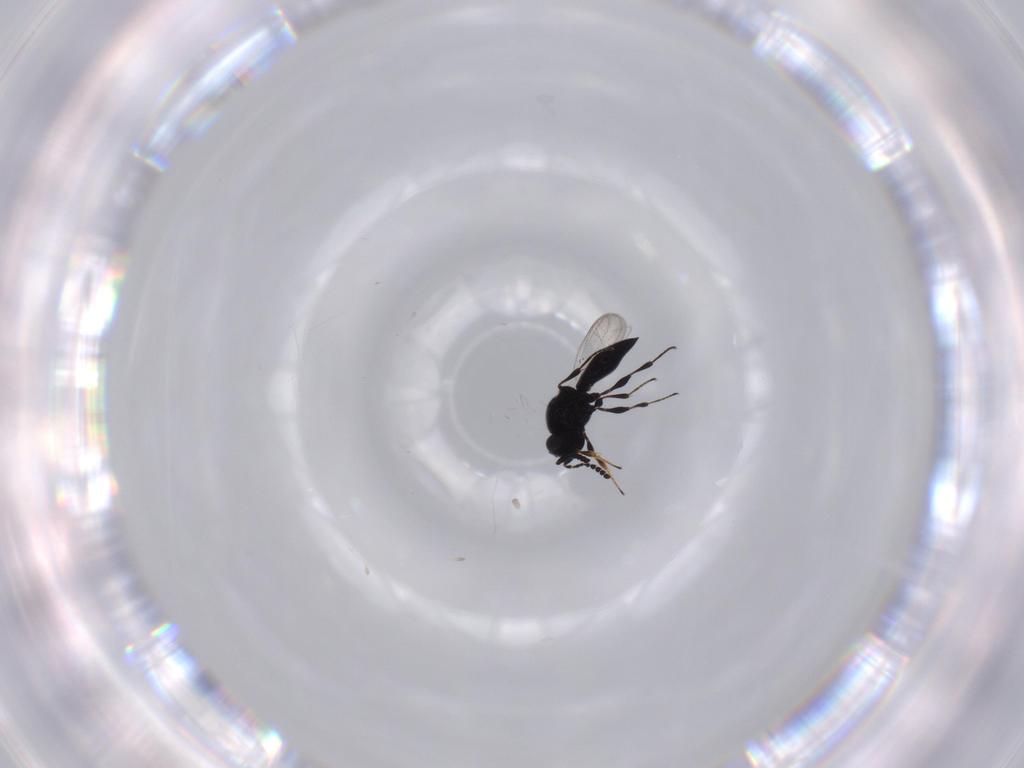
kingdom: Animalia
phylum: Arthropoda
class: Insecta
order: Hymenoptera
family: Platygastridae
